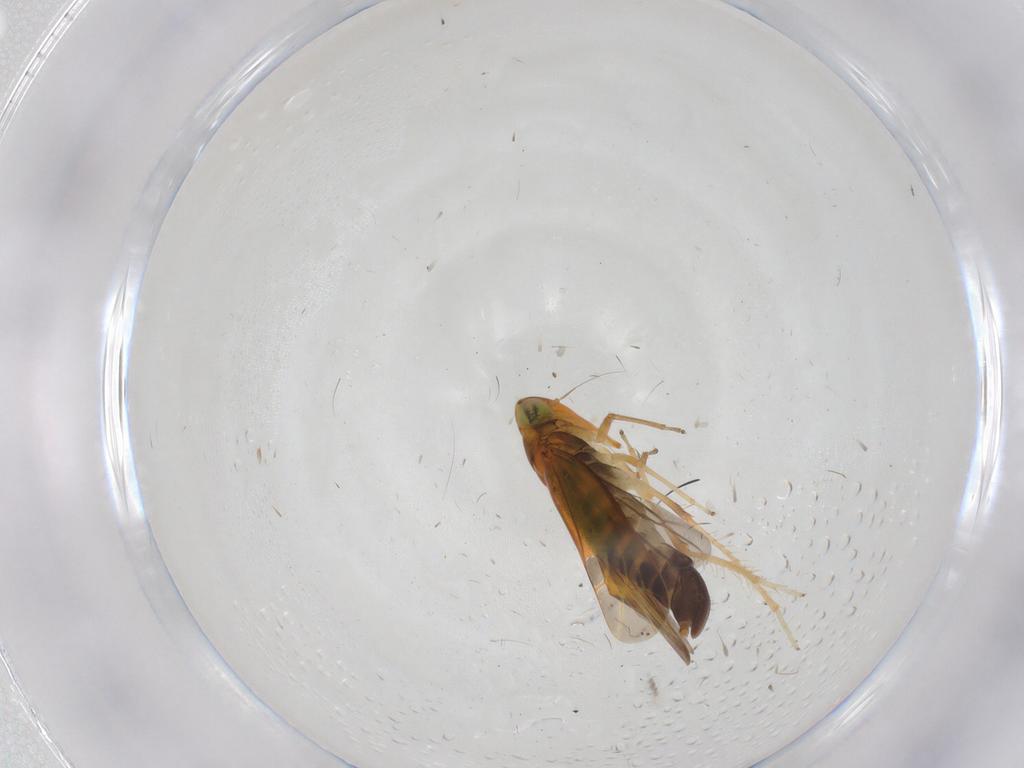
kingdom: Animalia
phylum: Arthropoda
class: Insecta
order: Hemiptera
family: Cicadellidae
